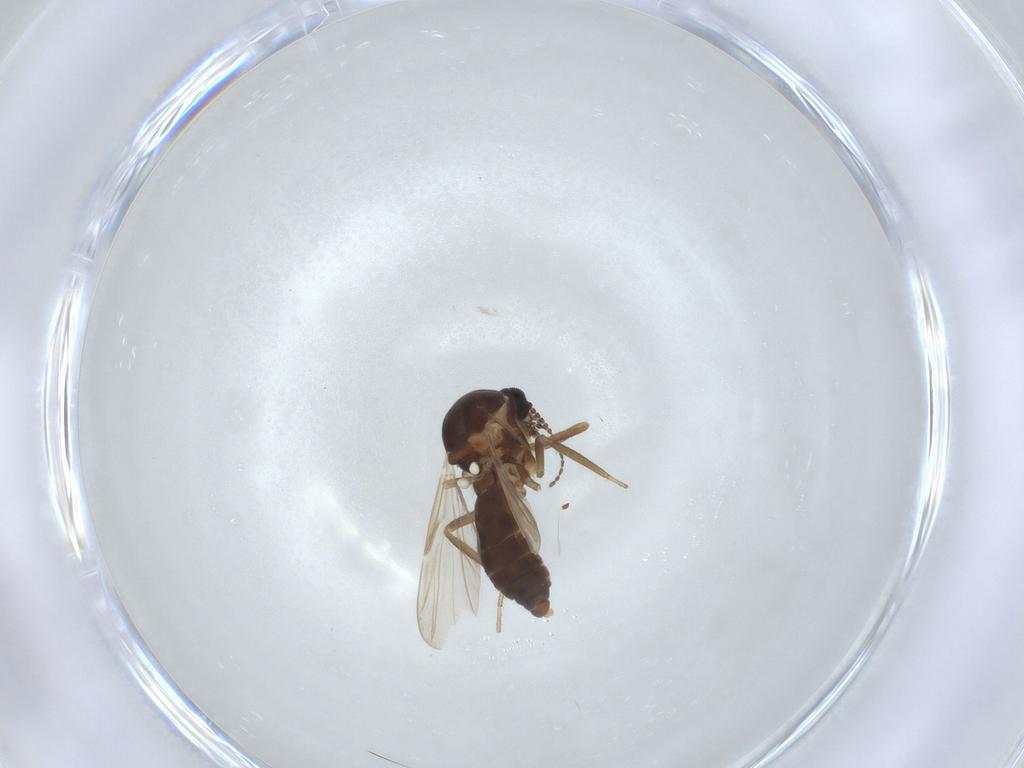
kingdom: Animalia
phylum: Arthropoda
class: Insecta
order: Diptera
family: Ceratopogonidae
